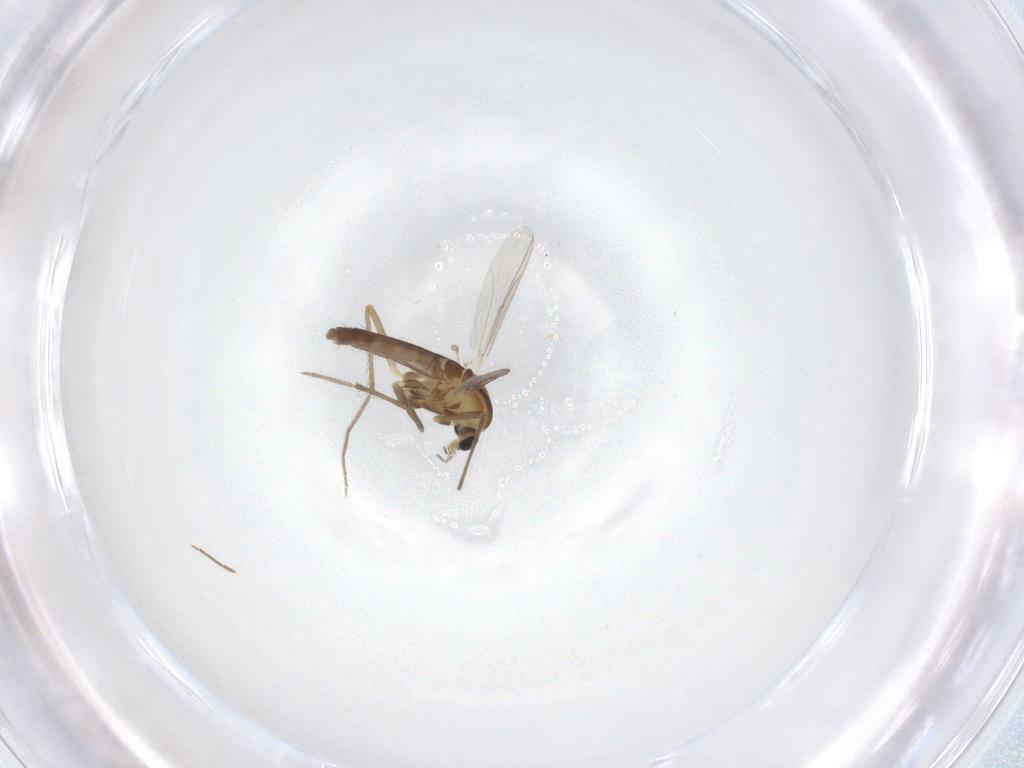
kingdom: Animalia
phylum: Arthropoda
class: Insecta
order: Diptera
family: Chironomidae
